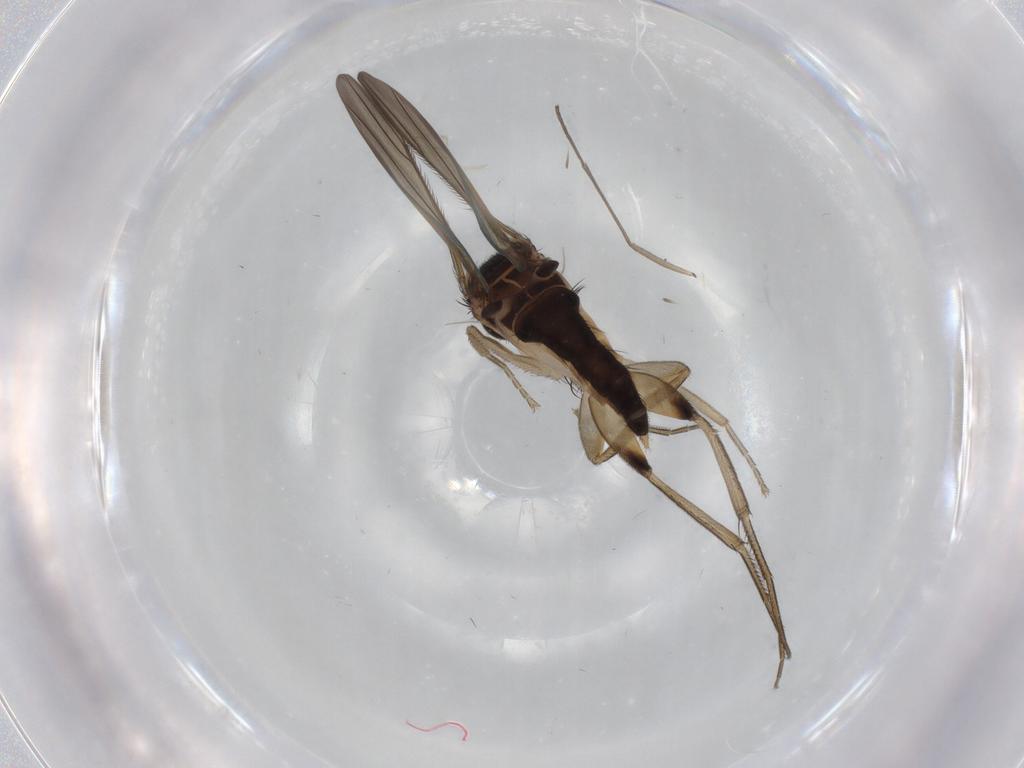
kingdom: Animalia
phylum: Arthropoda
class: Insecta
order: Diptera
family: Phoridae
